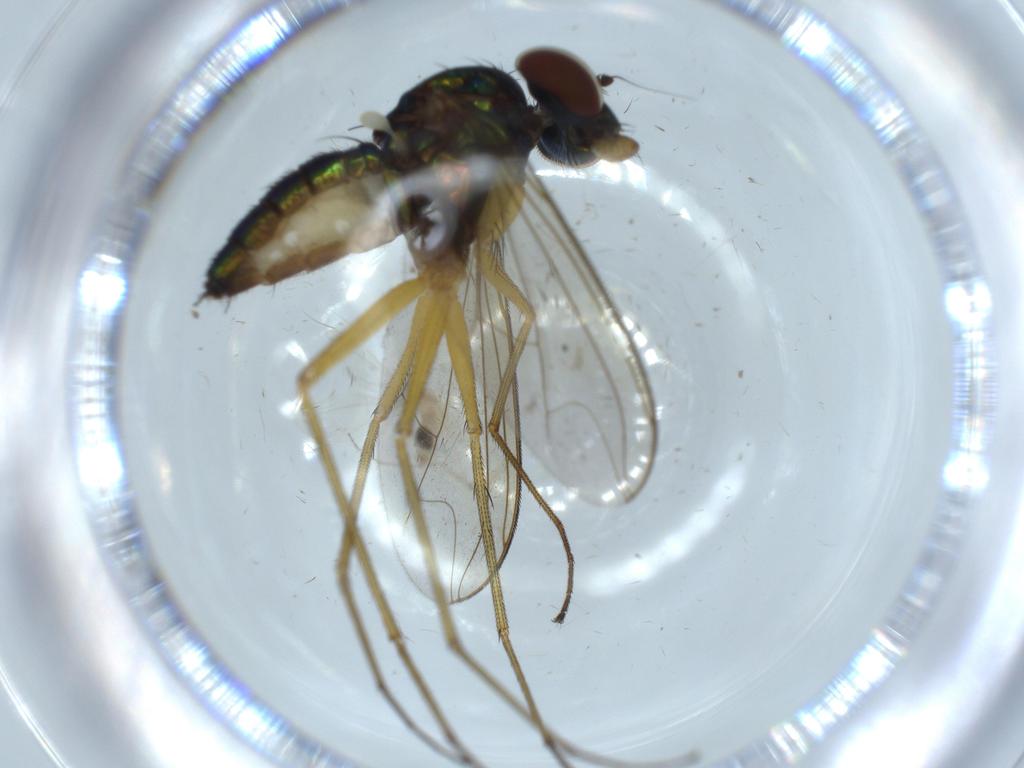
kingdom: Animalia
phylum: Arthropoda
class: Insecta
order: Diptera
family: Dolichopodidae
